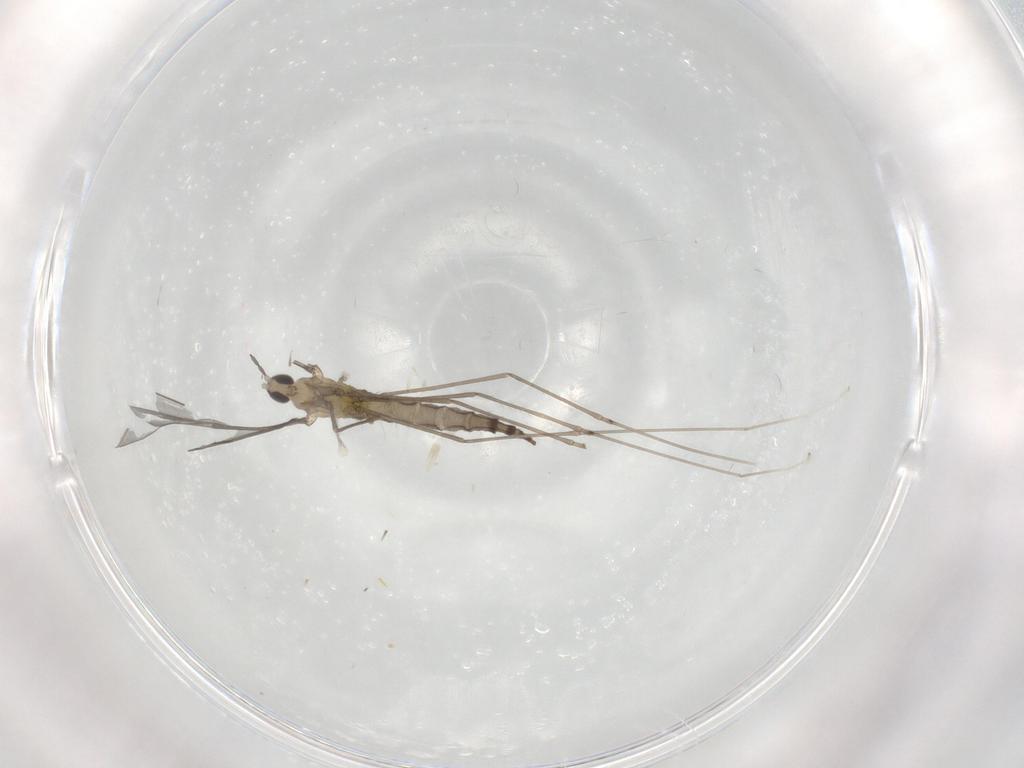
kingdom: Animalia
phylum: Arthropoda
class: Insecta
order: Diptera
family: Cecidomyiidae
